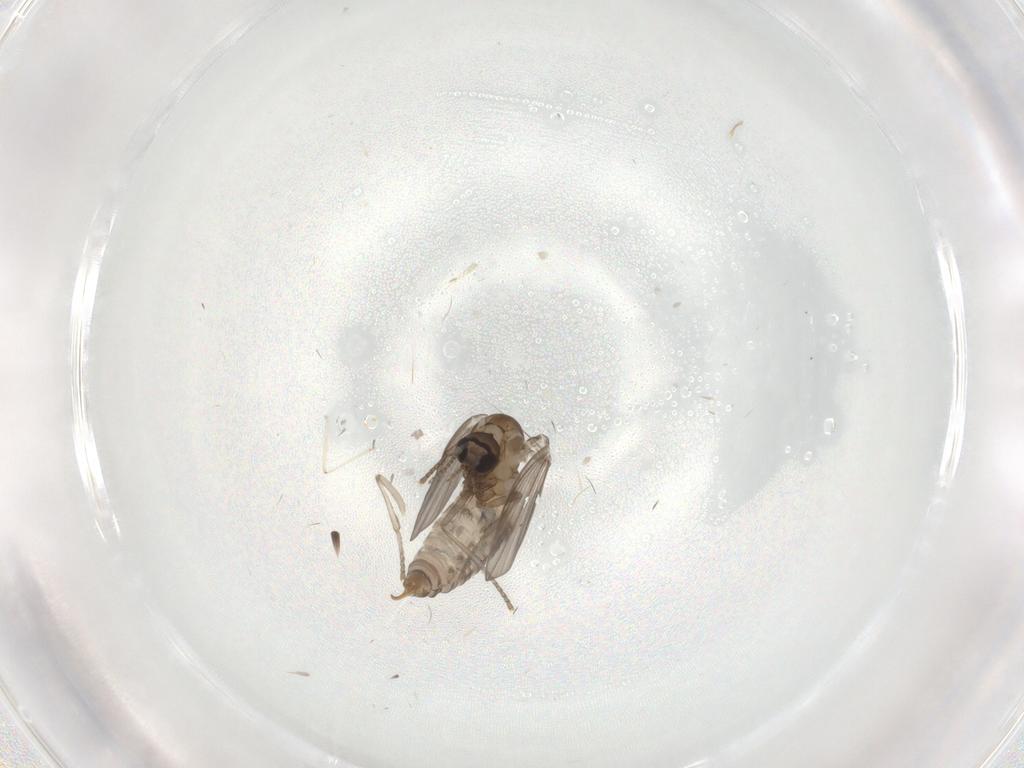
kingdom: Animalia
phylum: Arthropoda
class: Insecta
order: Diptera
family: Psychodidae
